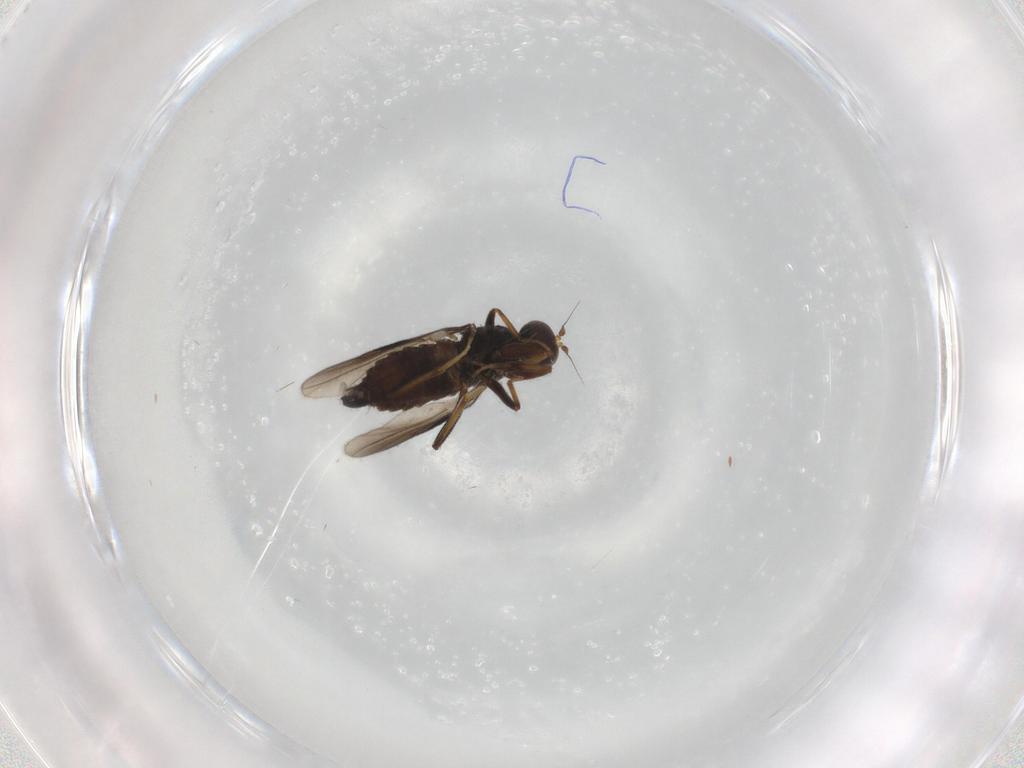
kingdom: Animalia
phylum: Arthropoda
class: Insecta
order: Diptera
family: Hybotidae
